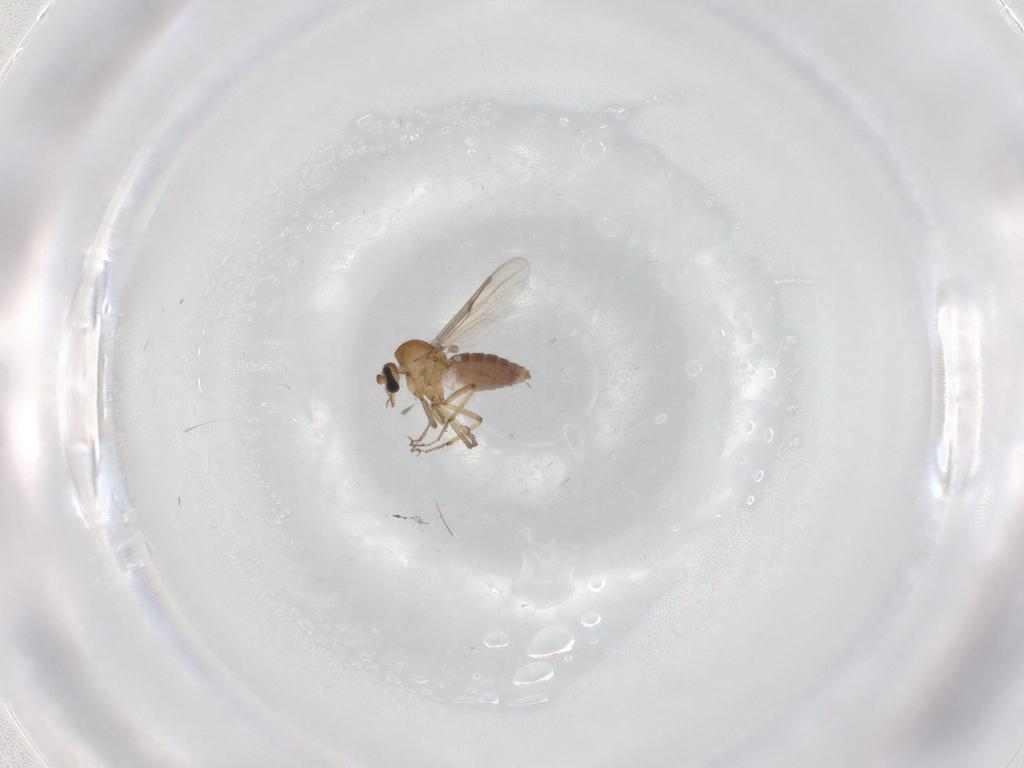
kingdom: Animalia
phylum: Arthropoda
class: Insecta
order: Diptera
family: Chironomidae
